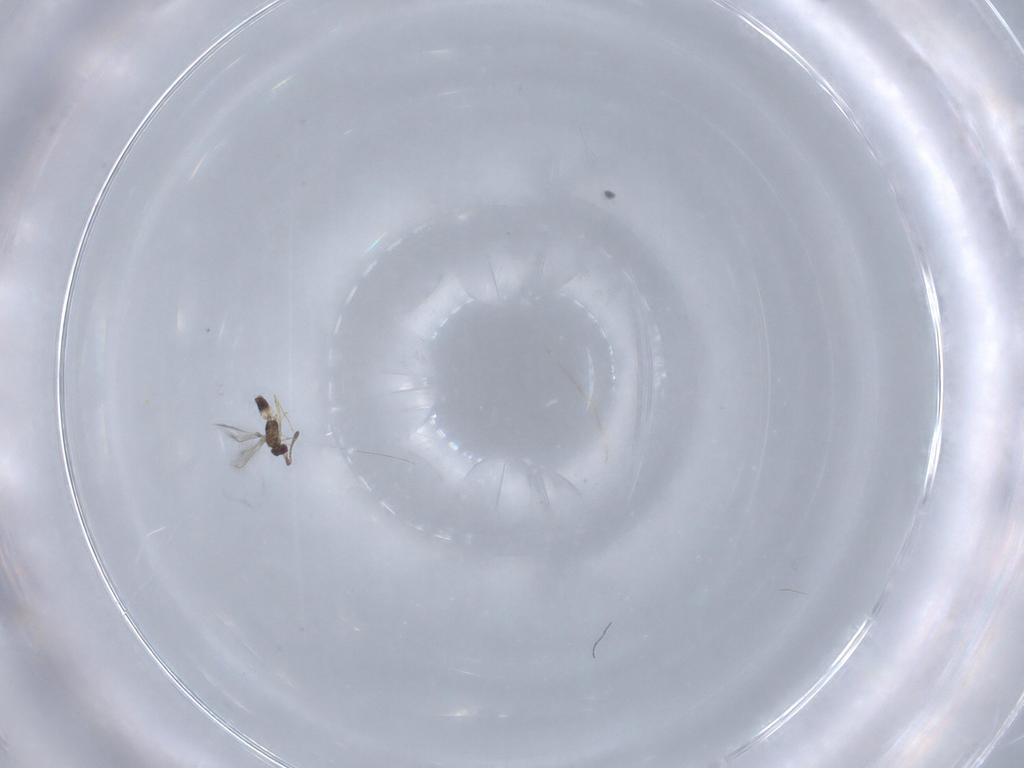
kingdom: Animalia
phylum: Arthropoda
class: Insecta
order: Hymenoptera
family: Mymaridae
